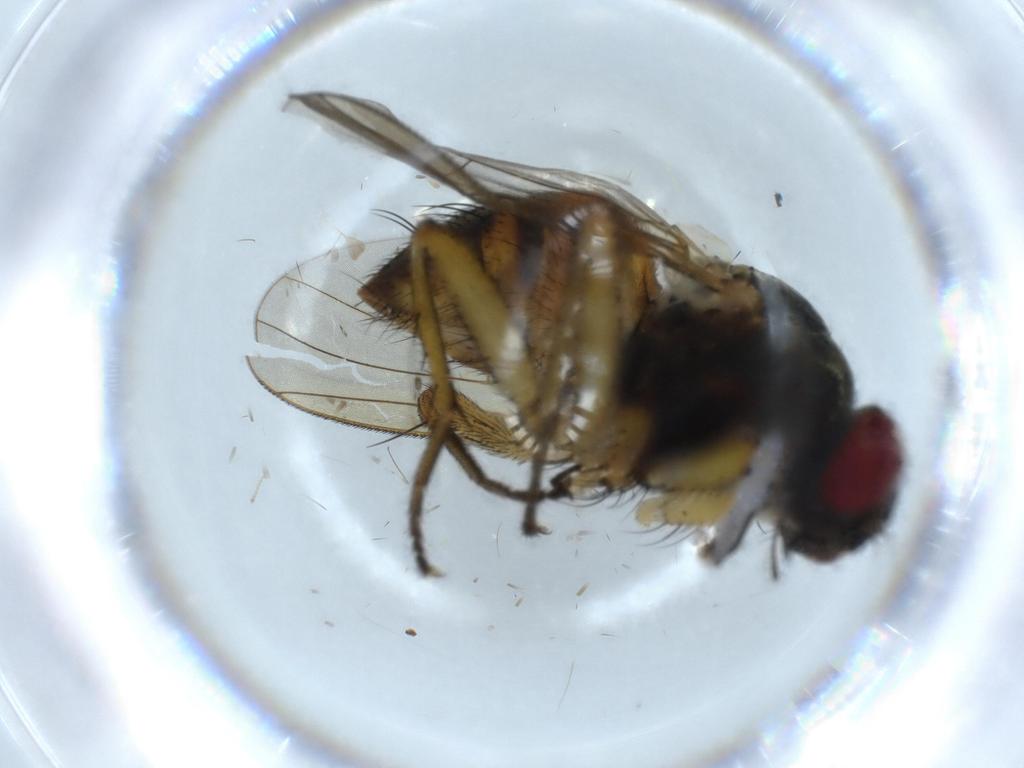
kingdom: Animalia
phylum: Arthropoda
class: Insecta
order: Diptera
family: Muscidae
